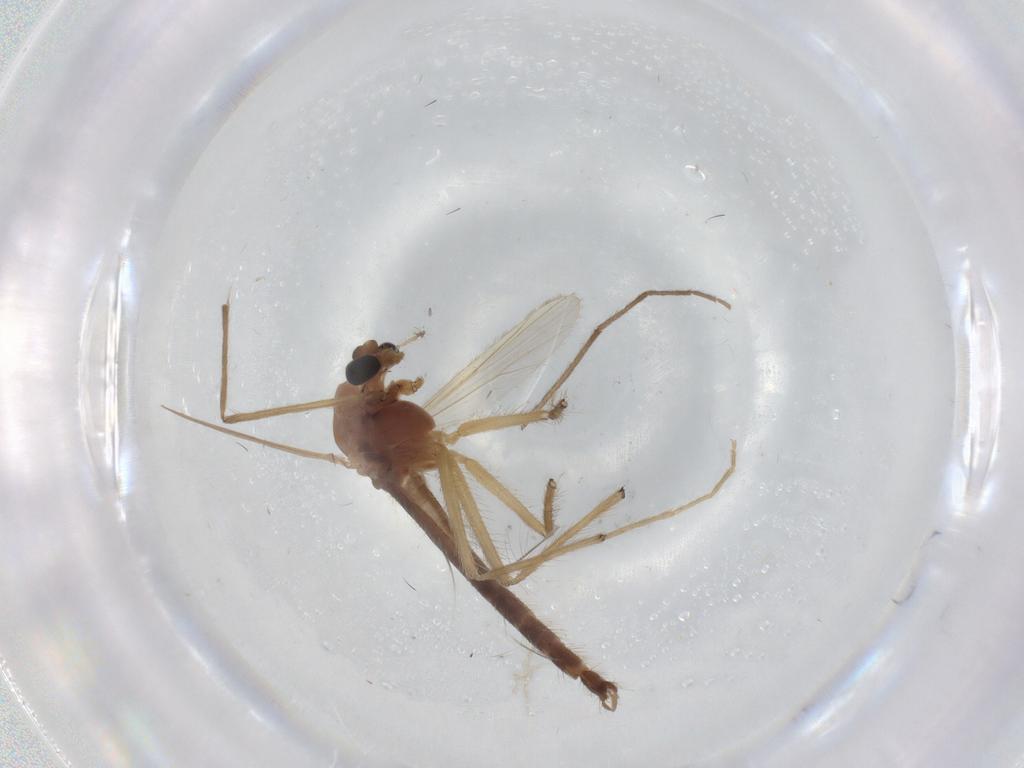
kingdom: Animalia
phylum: Arthropoda
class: Insecta
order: Diptera
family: Chironomidae
